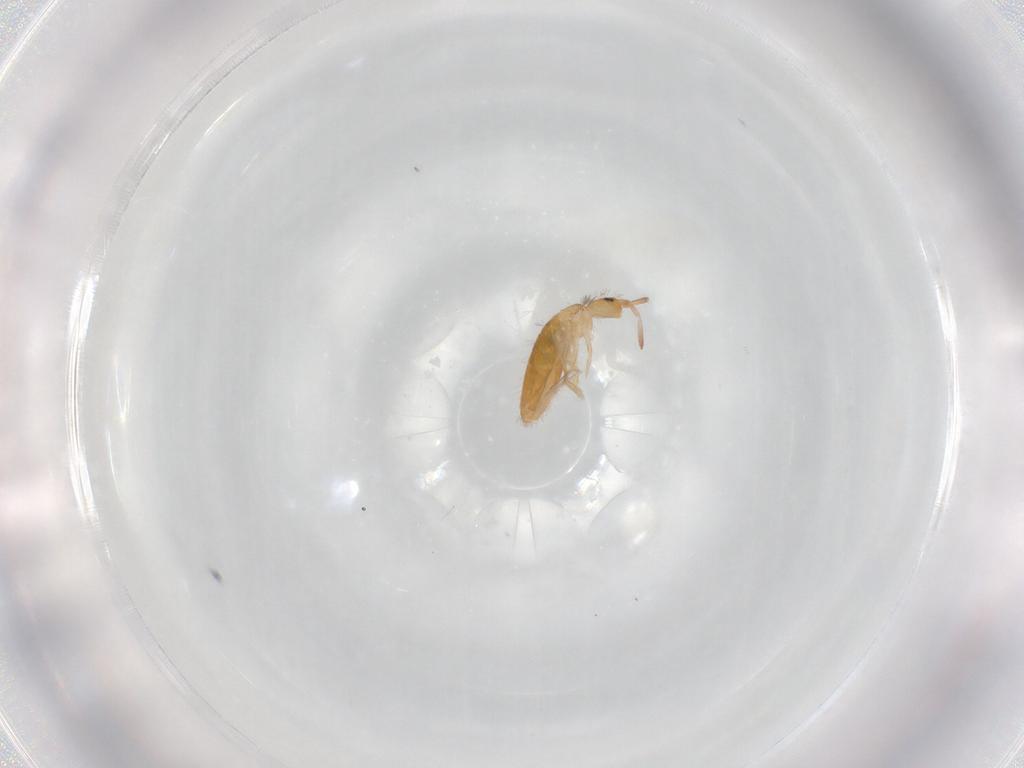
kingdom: Animalia
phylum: Arthropoda
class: Collembola
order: Entomobryomorpha
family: Entomobryidae
